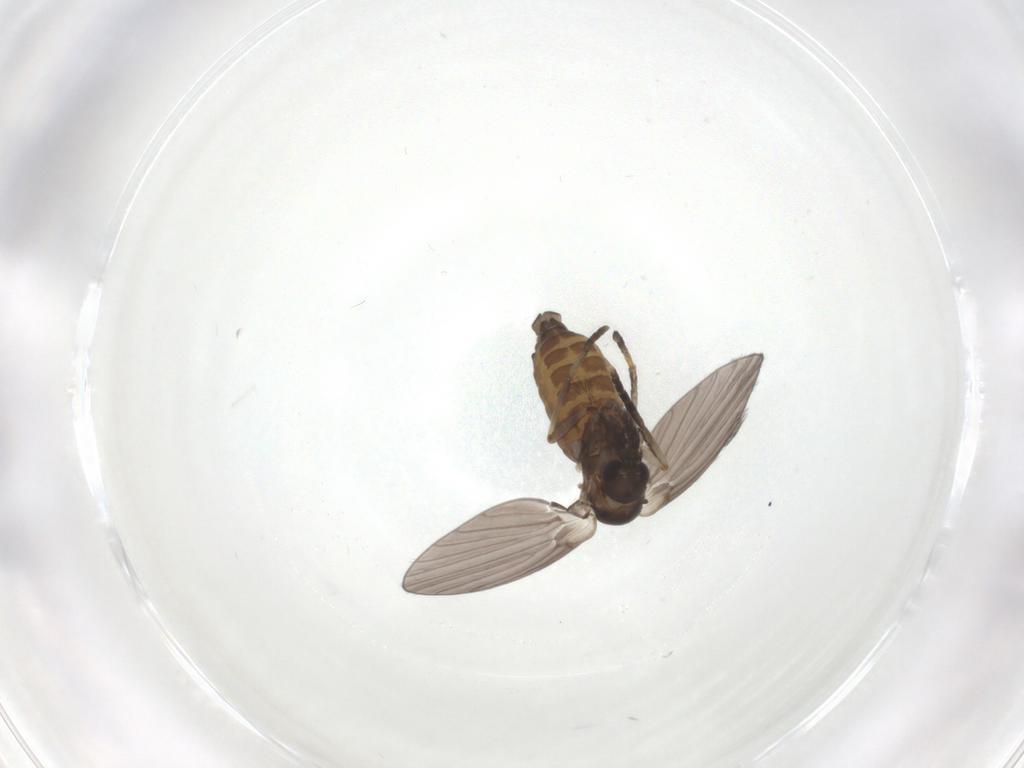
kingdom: Animalia
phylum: Arthropoda
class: Insecta
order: Diptera
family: Psychodidae
